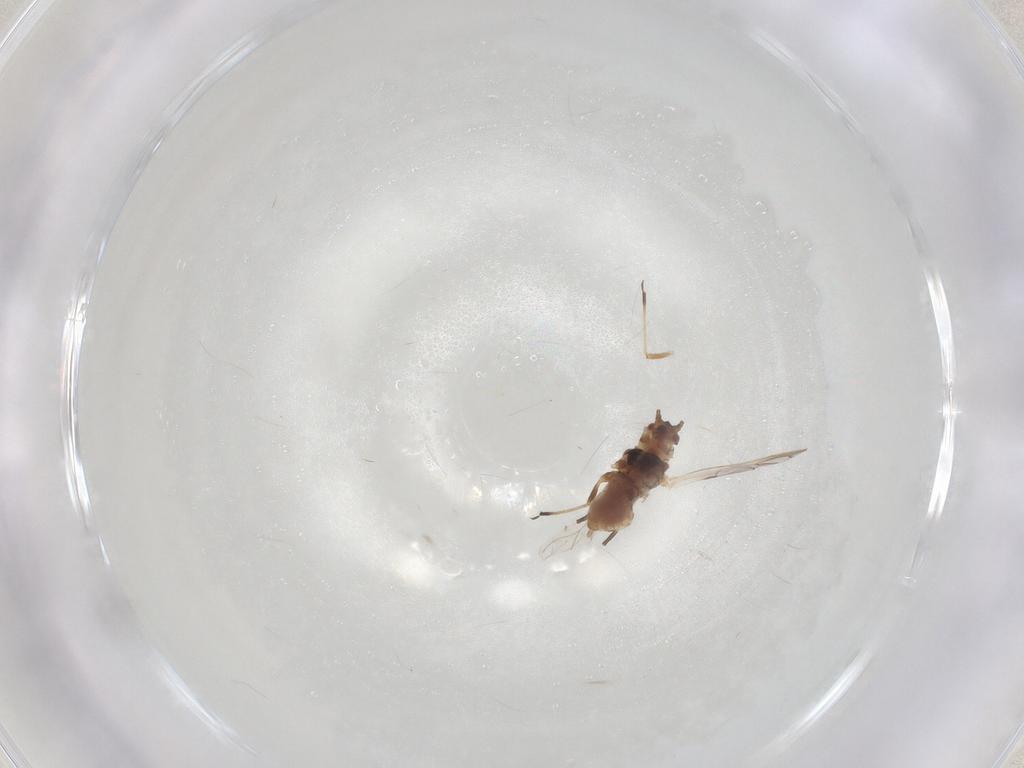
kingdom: Animalia
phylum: Arthropoda
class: Insecta
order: Hemiptera
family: Aphididae
